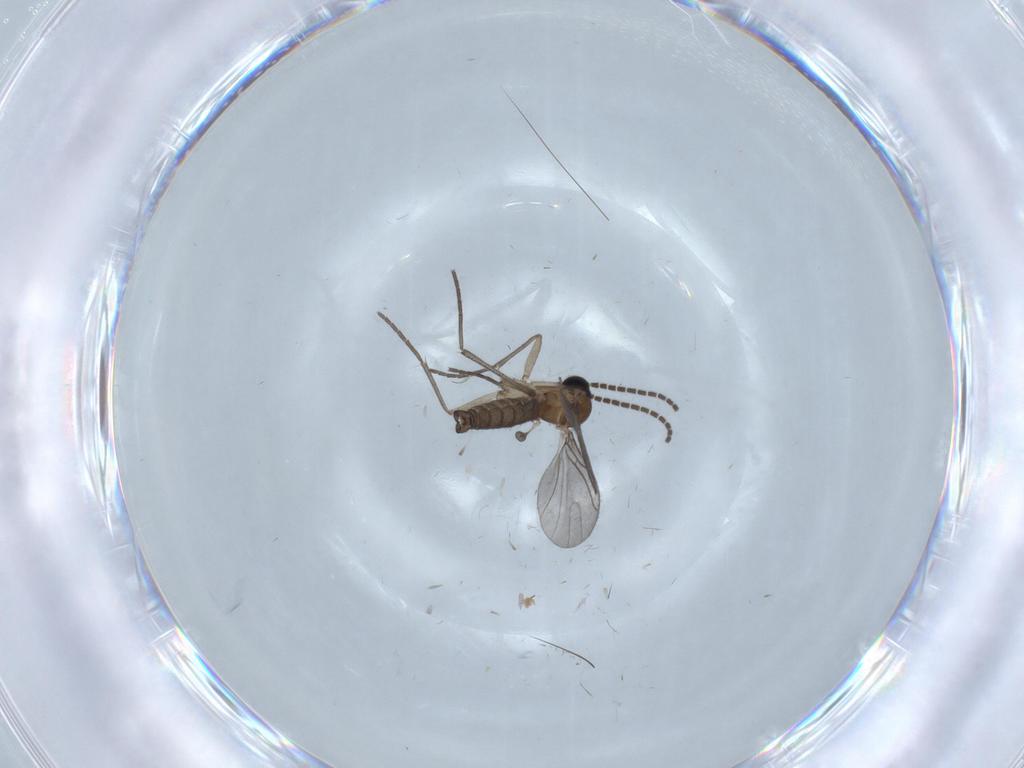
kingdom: Animalia
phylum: Arthropoda
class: Insecta
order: Diptera
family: Sciaridae
